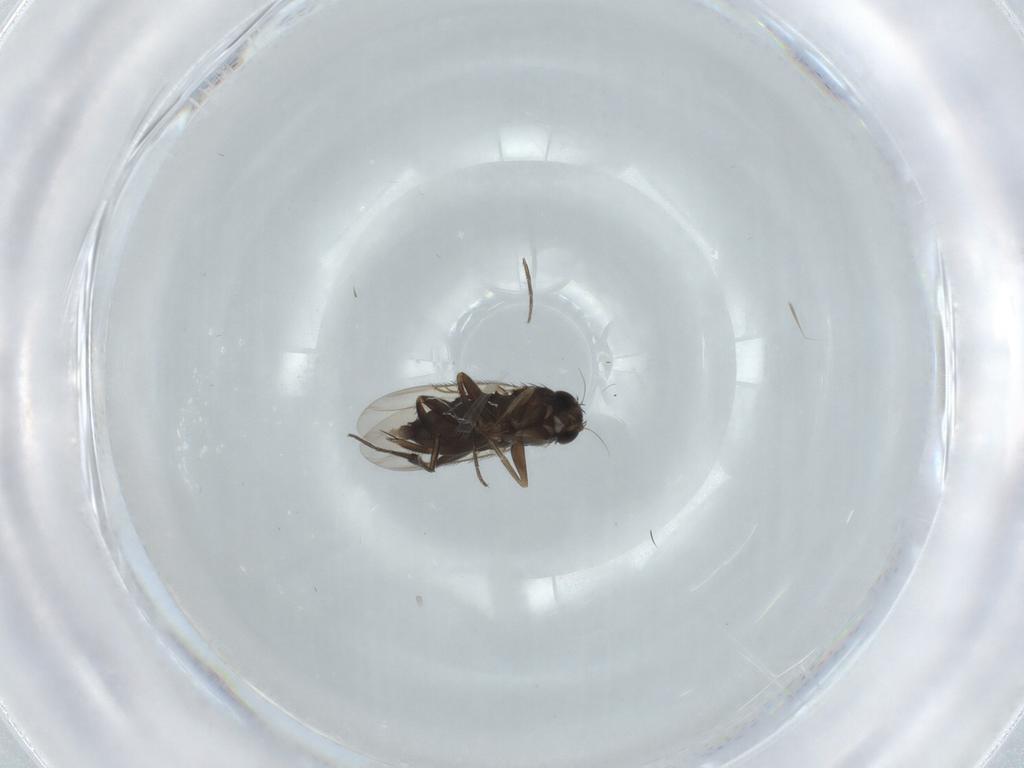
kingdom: Animalia
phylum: Arthropoda
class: Insecta
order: Diptera
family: Phoridae
